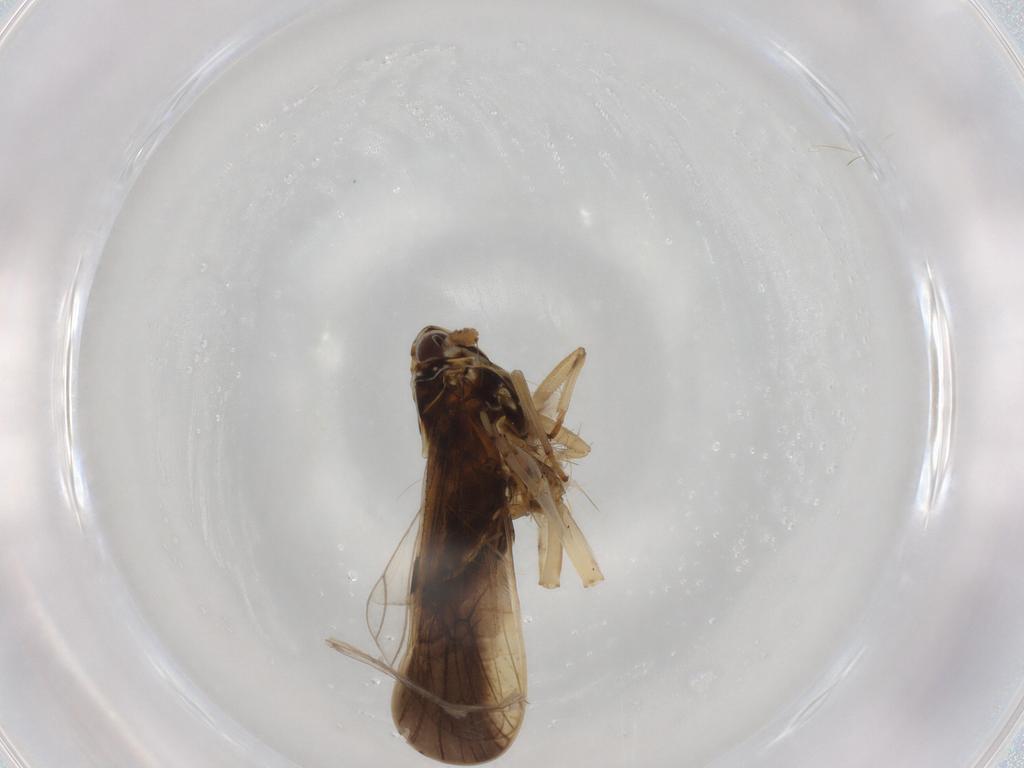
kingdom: Animalia
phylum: Arthropoda
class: Insecta
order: Hemiptera
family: Delphacidae
